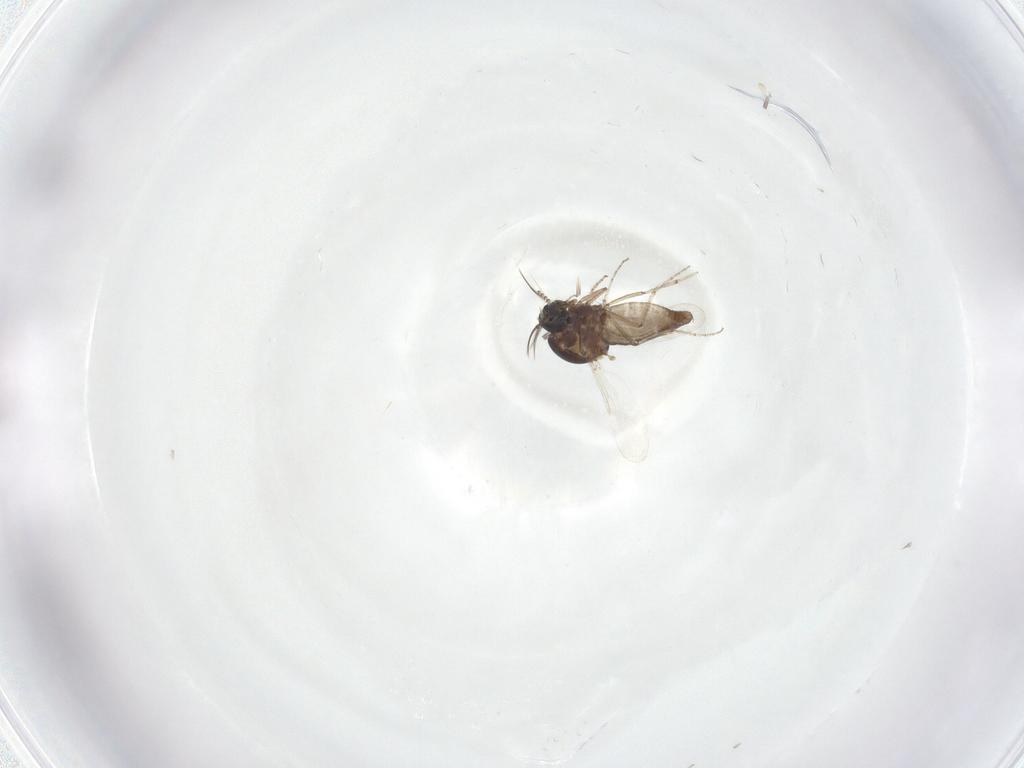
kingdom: Animalia
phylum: Arthropoda
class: Insecta
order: Diptera
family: Ceratopogonidae
